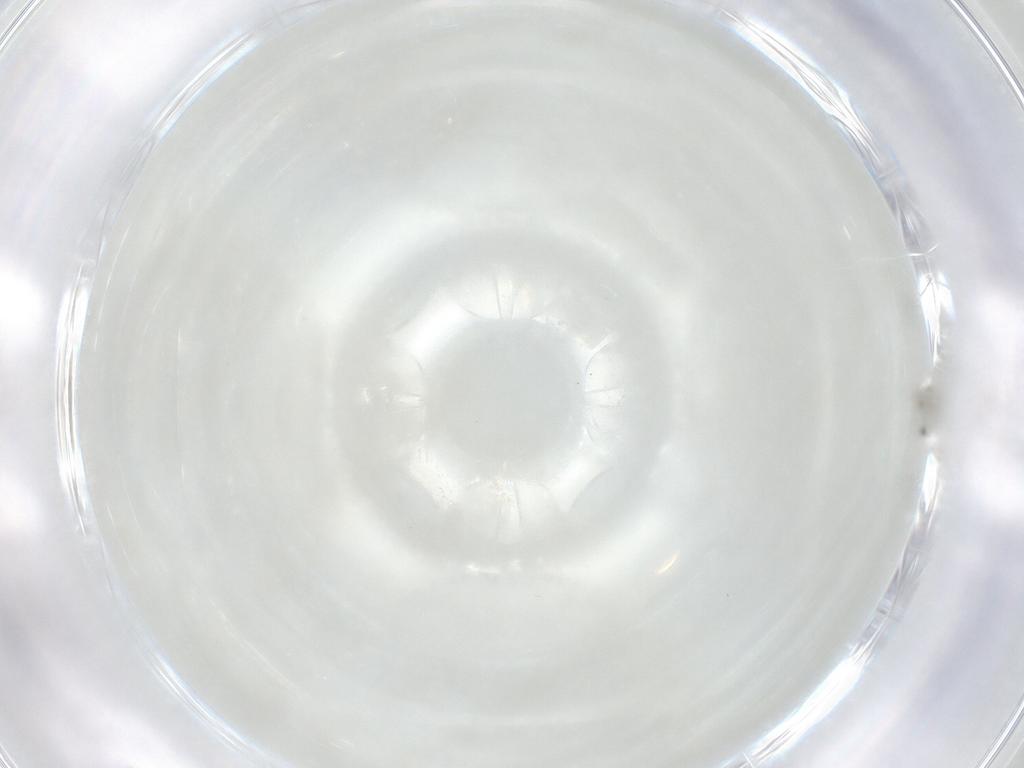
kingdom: Animalia
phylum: Arthropoda
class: Insecta
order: Diptera
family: Cecidomyiidae
